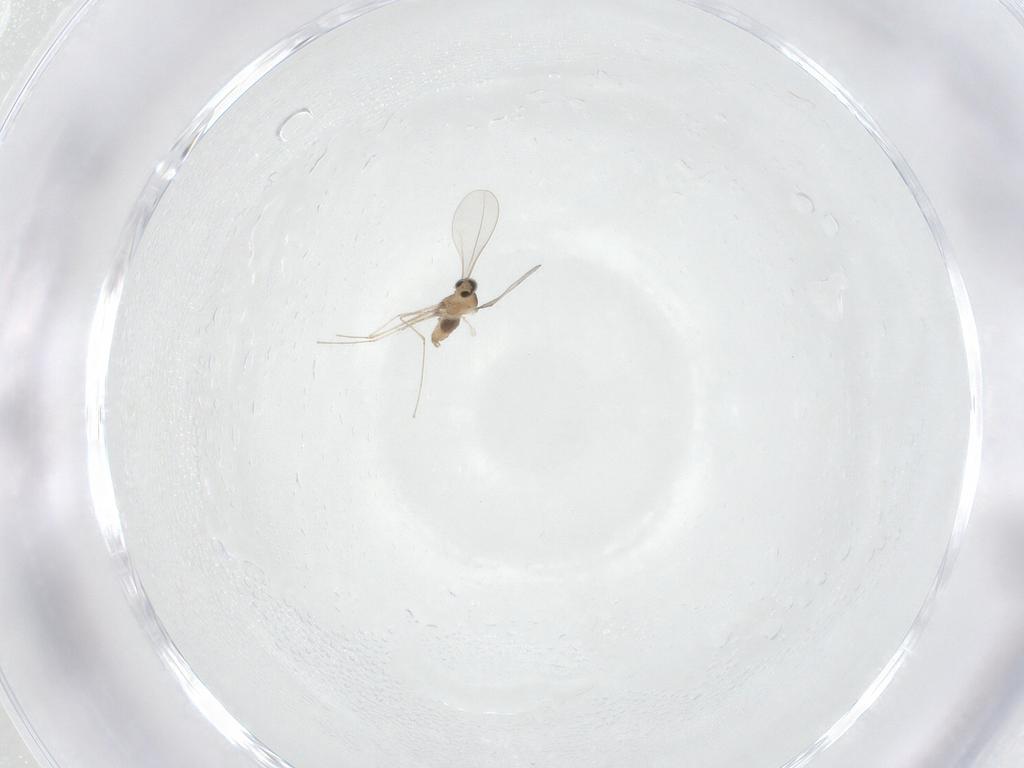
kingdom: Animalia
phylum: Arthropoda
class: Insecta
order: Diptera
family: Cecidomyiidae
